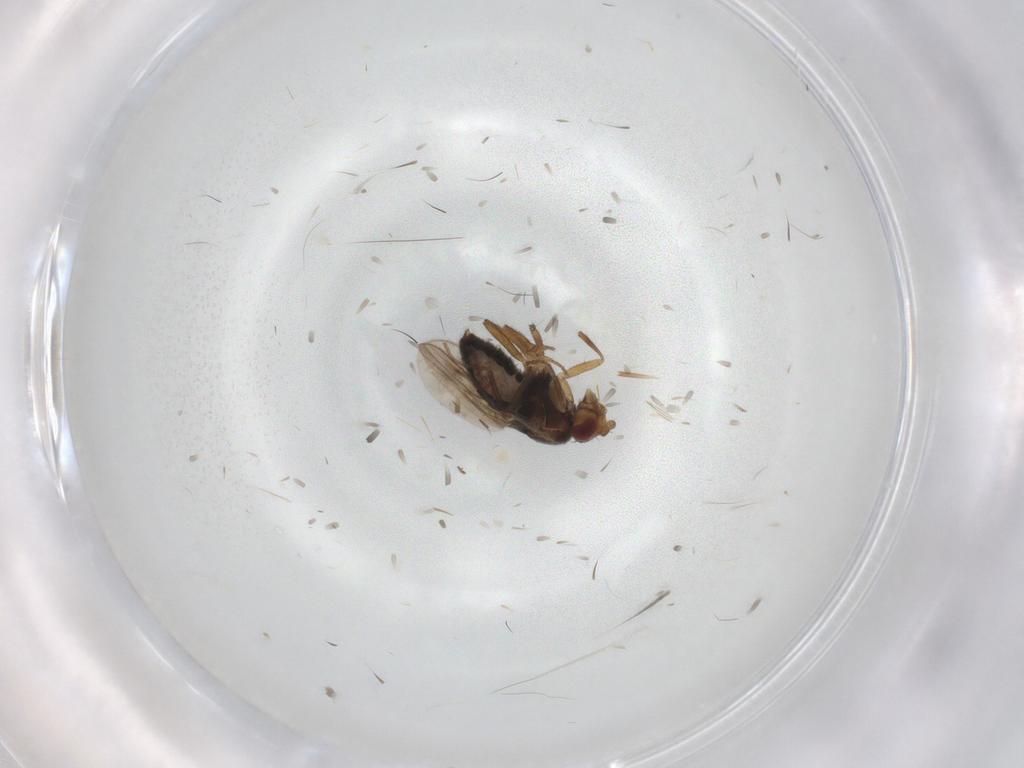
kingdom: Animalia
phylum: Arthropoda
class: Insecta
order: Diptera
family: Sphaeroceridae
